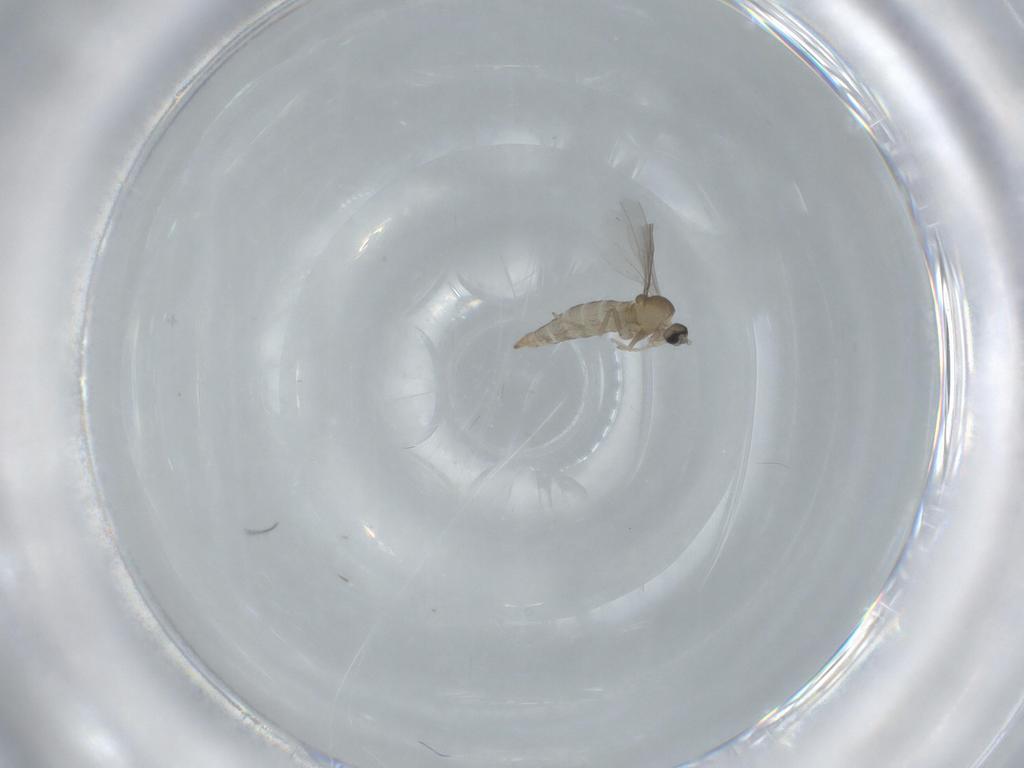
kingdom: Animalia
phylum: Arthropoda
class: Insecta
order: Diptera
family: Cecidomyiidae
